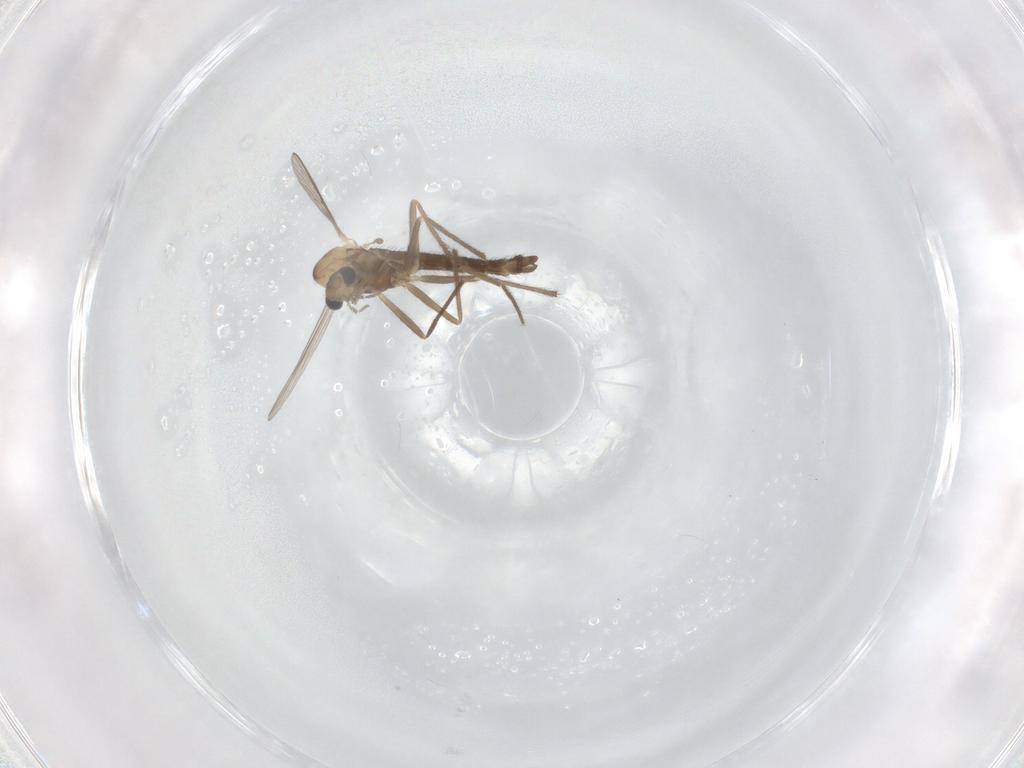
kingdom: Animalia
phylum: Arthropoda
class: Insecta
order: Diptera
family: Chironomidae
